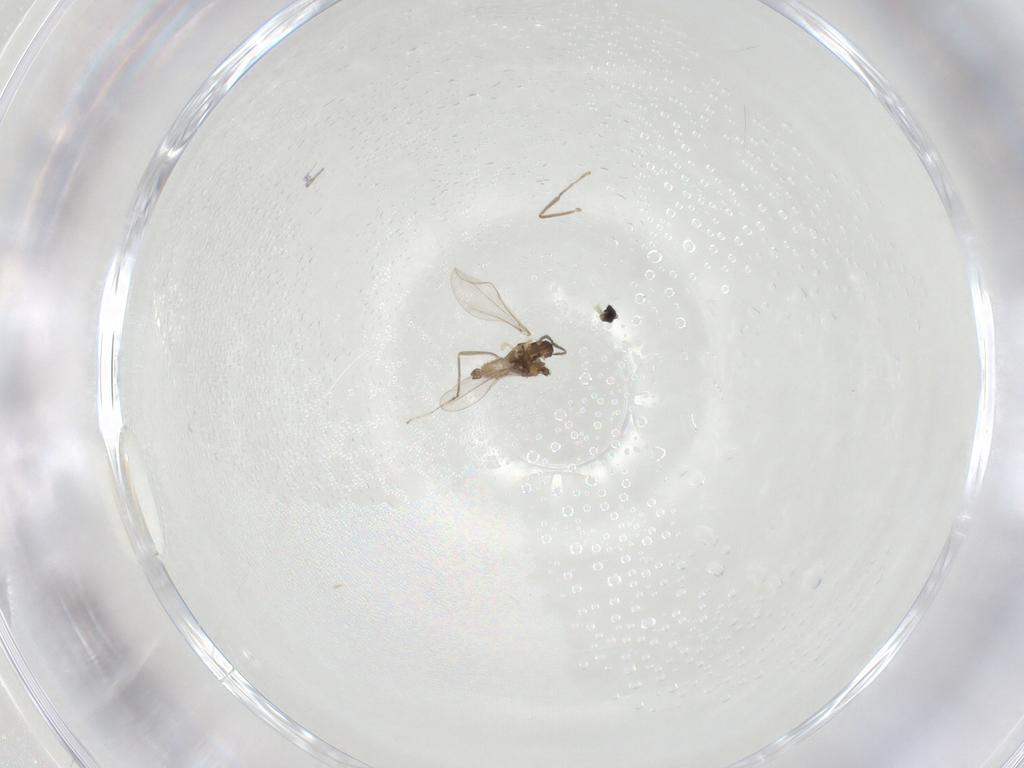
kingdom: Animalia
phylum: Arthropoda
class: Insecta
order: Diptera
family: Cecidomyiidae
